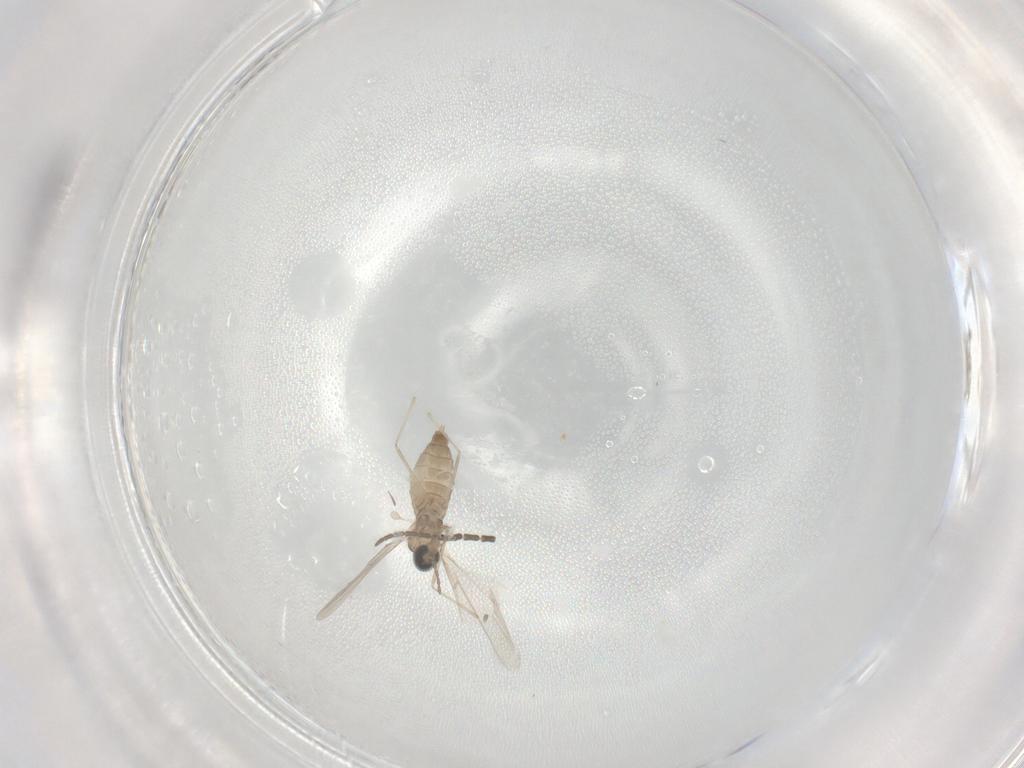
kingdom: Animalia
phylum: Arthropoda
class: Insecta
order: Diptera
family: Sciaridae
